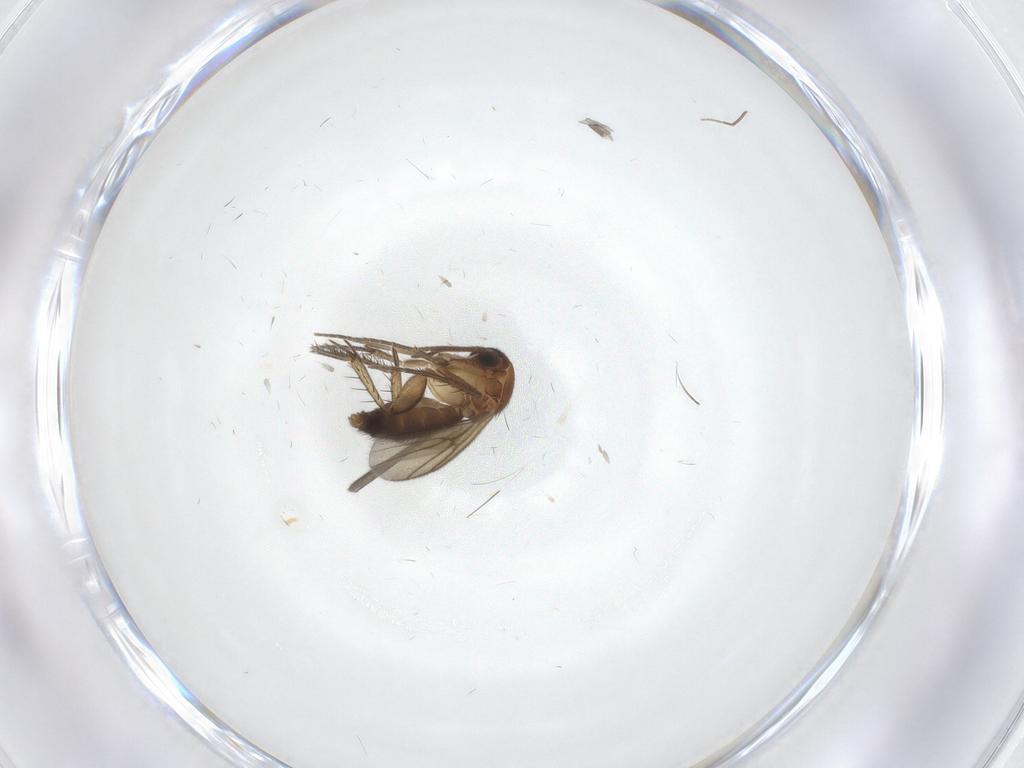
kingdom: Animalia
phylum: Arthropoda
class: Insecta
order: Diptera
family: Mycetophilidae
